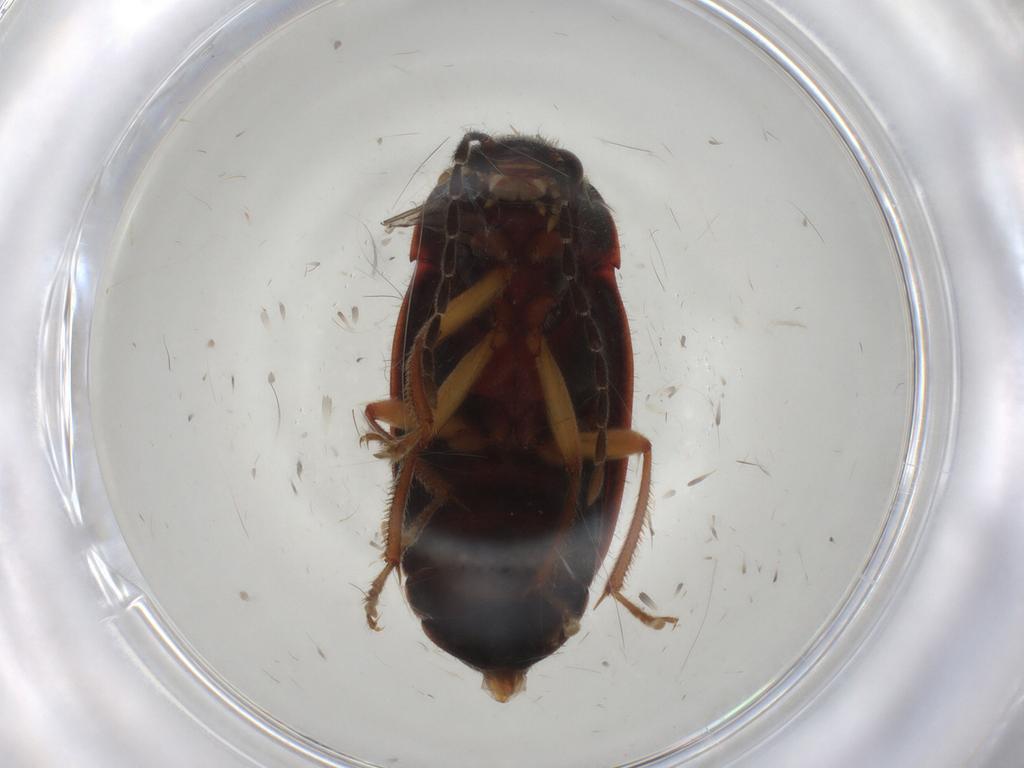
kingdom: Animalia
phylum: Arthropoda
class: Insecta
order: Coleoptera
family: Ptilodactylidae
